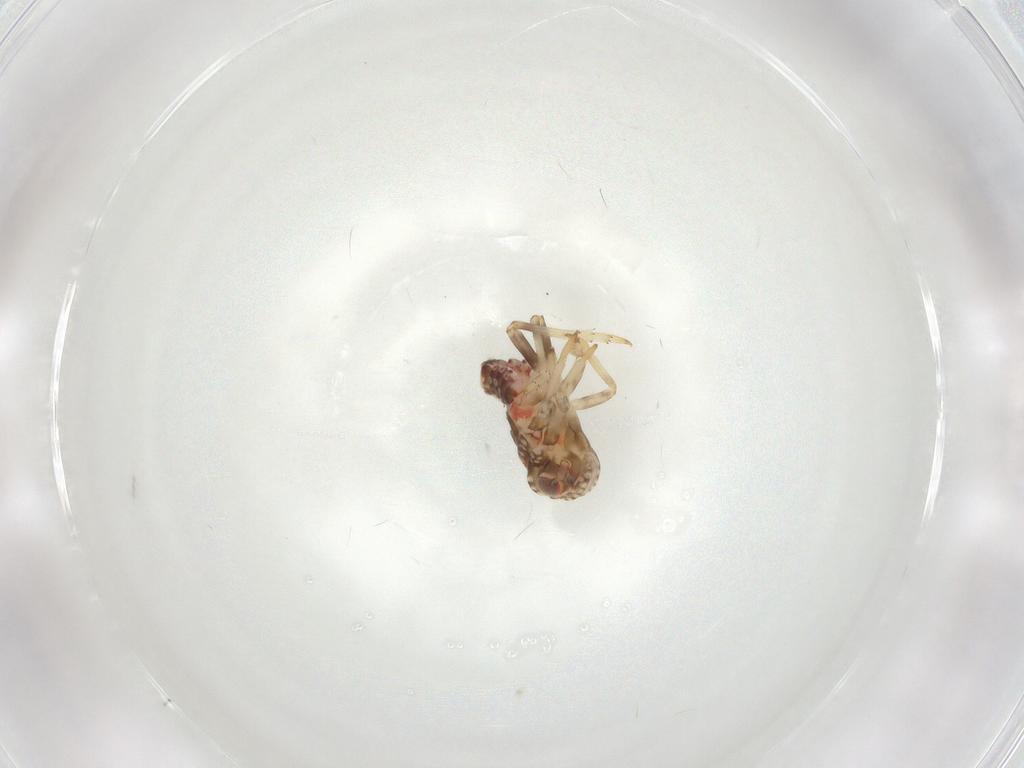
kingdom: Animalia
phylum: Arthropoda
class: Insecta
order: Hemiptera
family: Tropiduchidae
